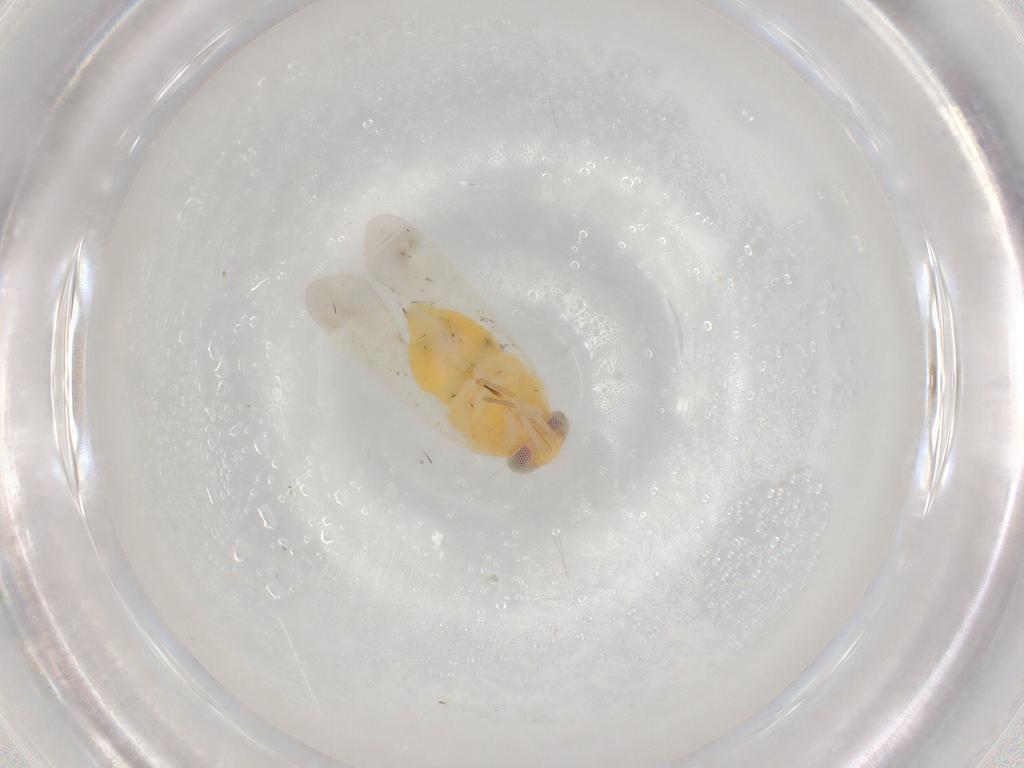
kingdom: Animalia
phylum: Arthropoda
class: Insecta
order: Hemiptera
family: Miridae
